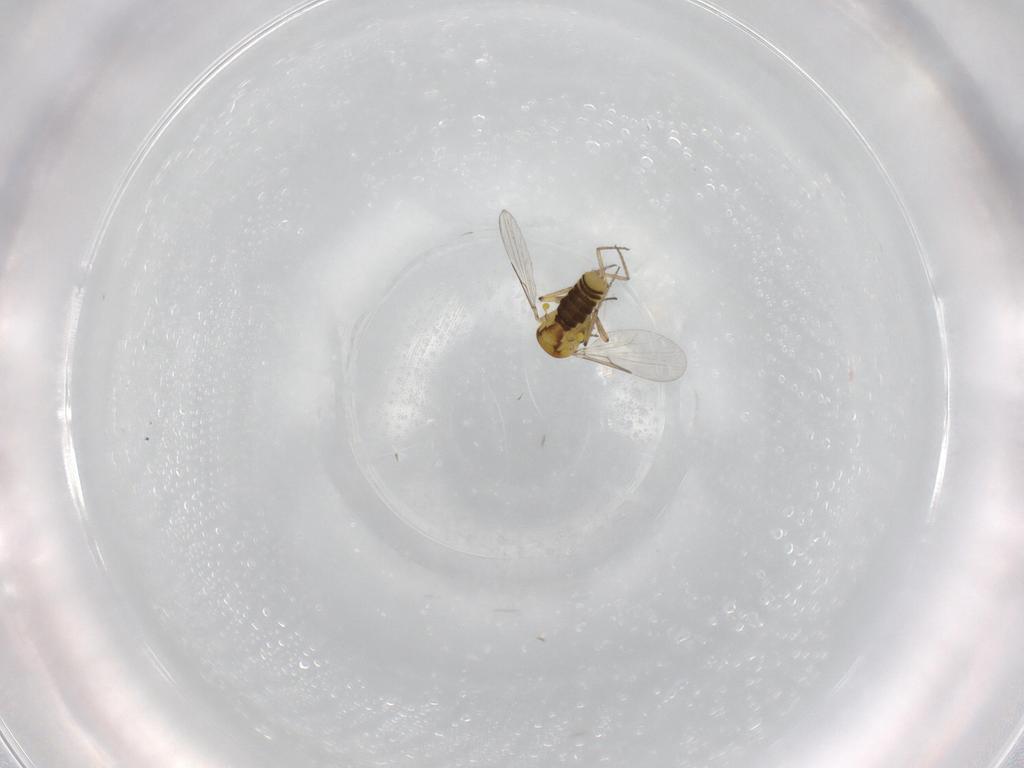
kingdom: Animalia
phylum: Arthropoda
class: Insecta
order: Diptera
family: Ceratopogonidae
